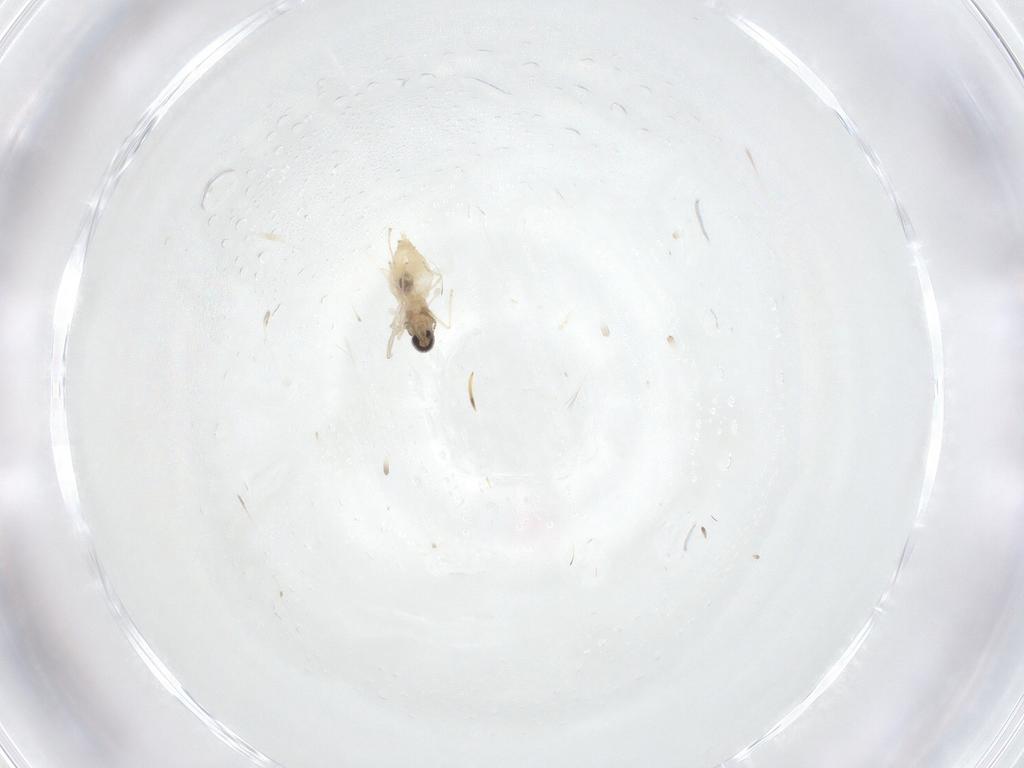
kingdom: Animalia
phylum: Arthropoda
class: Insecta
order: Diptera
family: Cecidomyiidae
